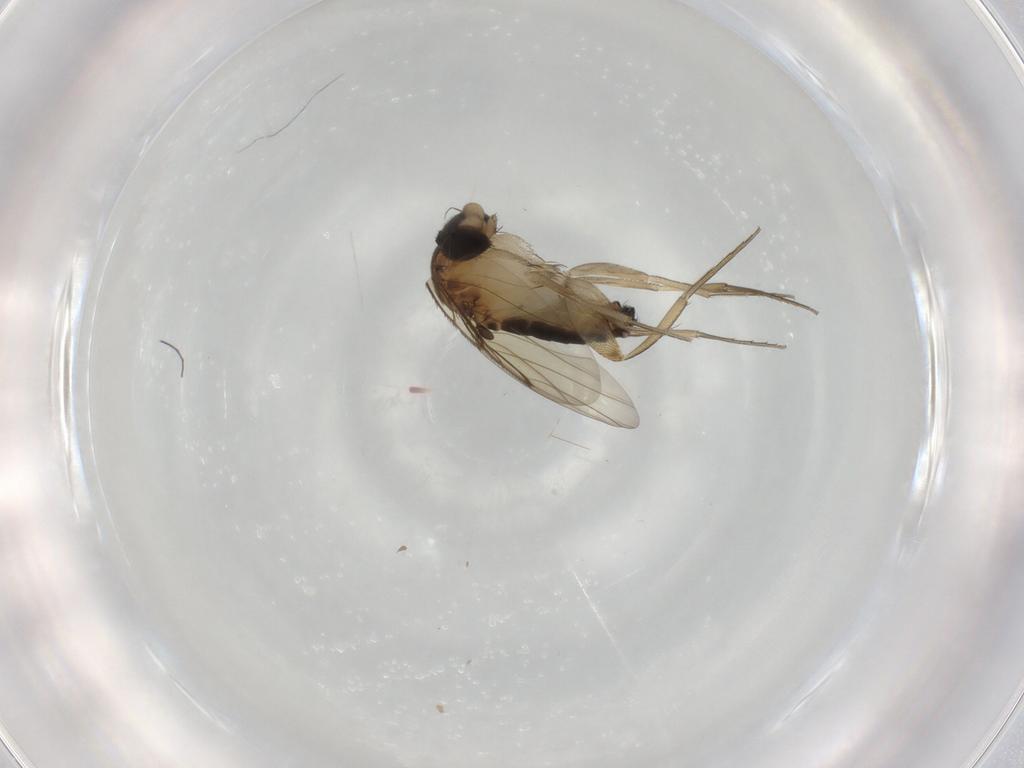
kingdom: Animalia
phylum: Arthropoda
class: Insecta
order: Diptera
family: Phoridae
